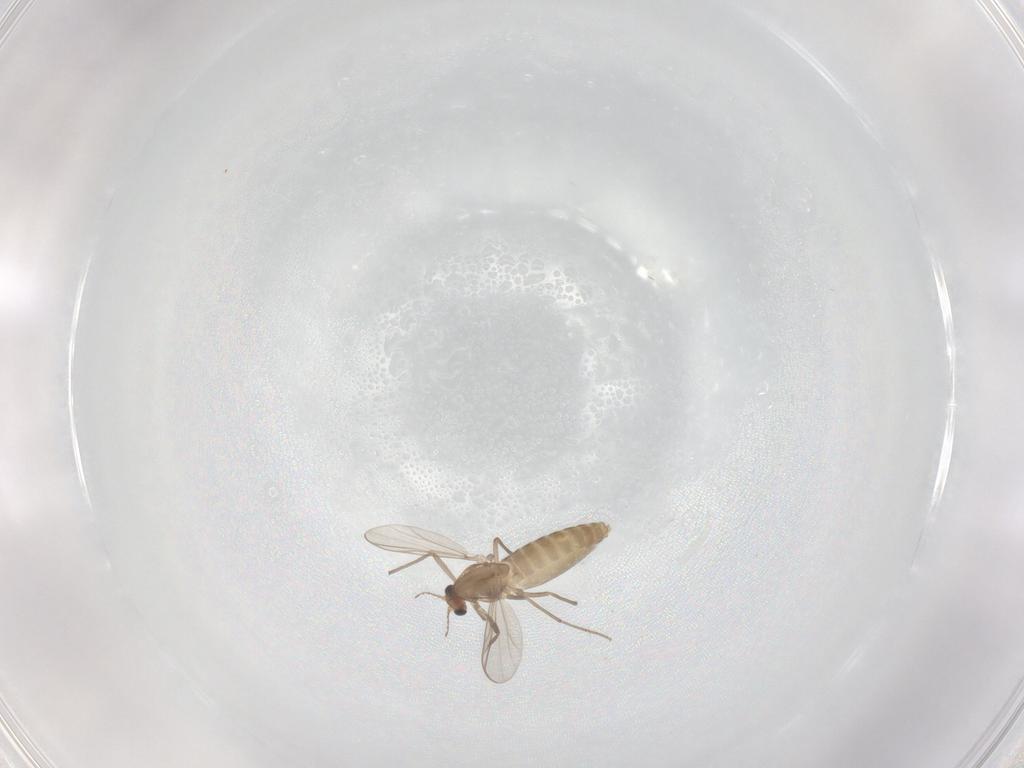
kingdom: Animalia
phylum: Arthropoda
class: Insecta
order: Diptera
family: Chironomidae
